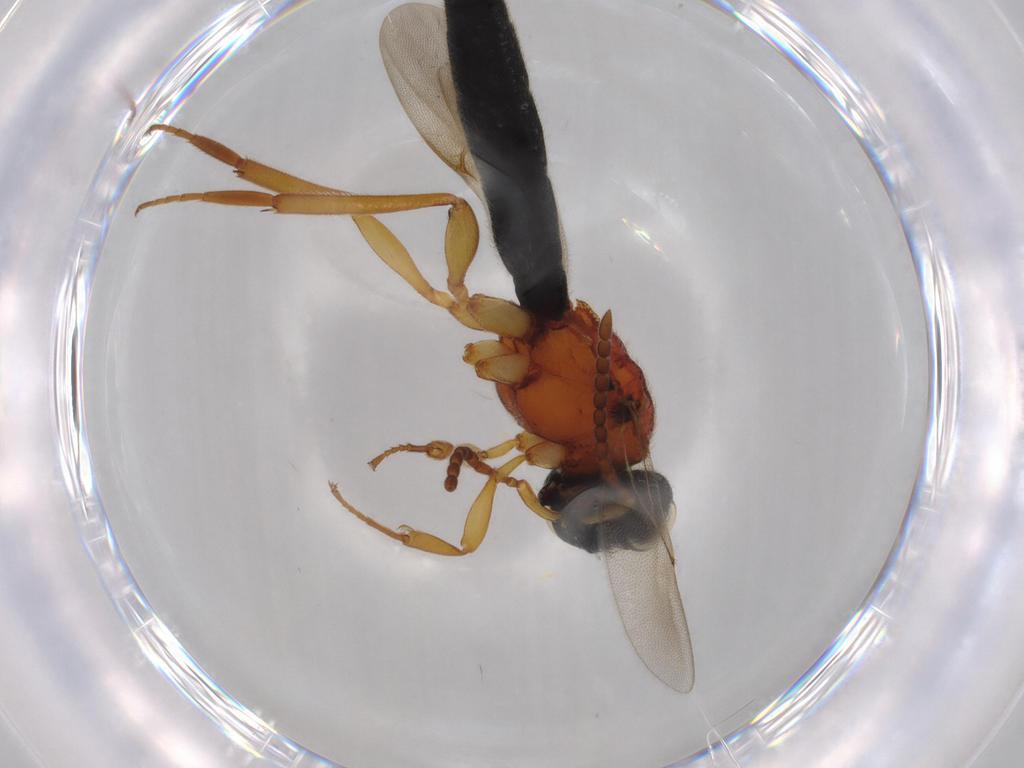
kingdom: Animalia
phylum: Arthropoda
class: Insecta
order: Hymenoptera
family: Scelionidae
